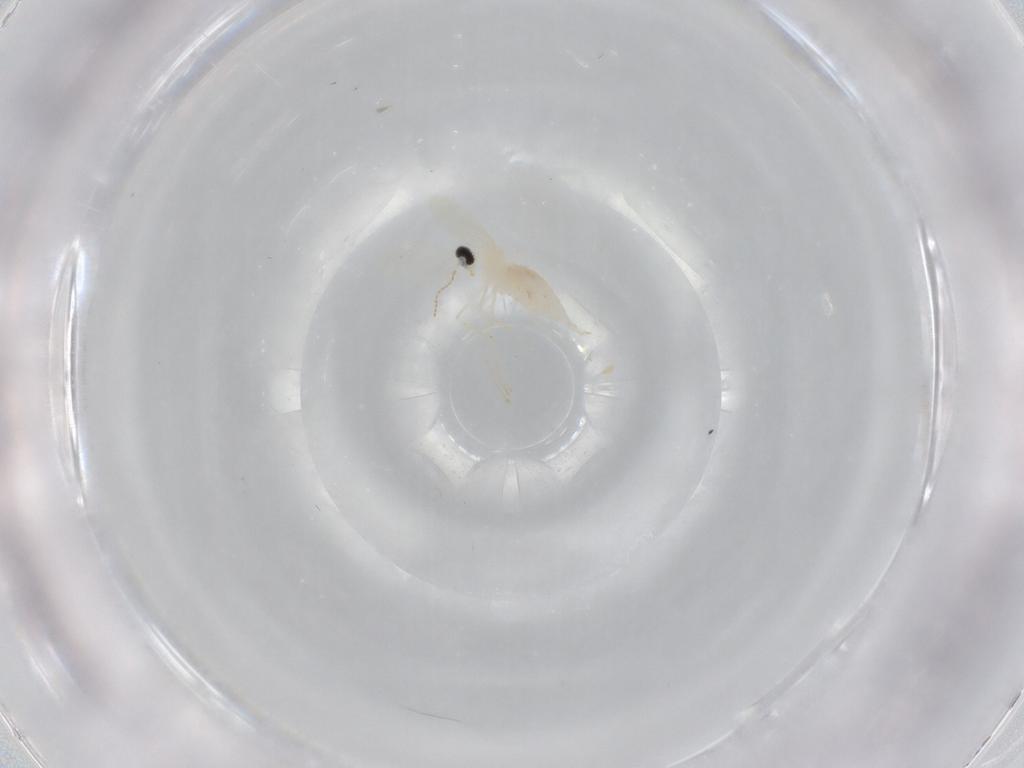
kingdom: Animalia
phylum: Arthropoda
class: Insecta
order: Diptera
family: Cecidomyiidae
